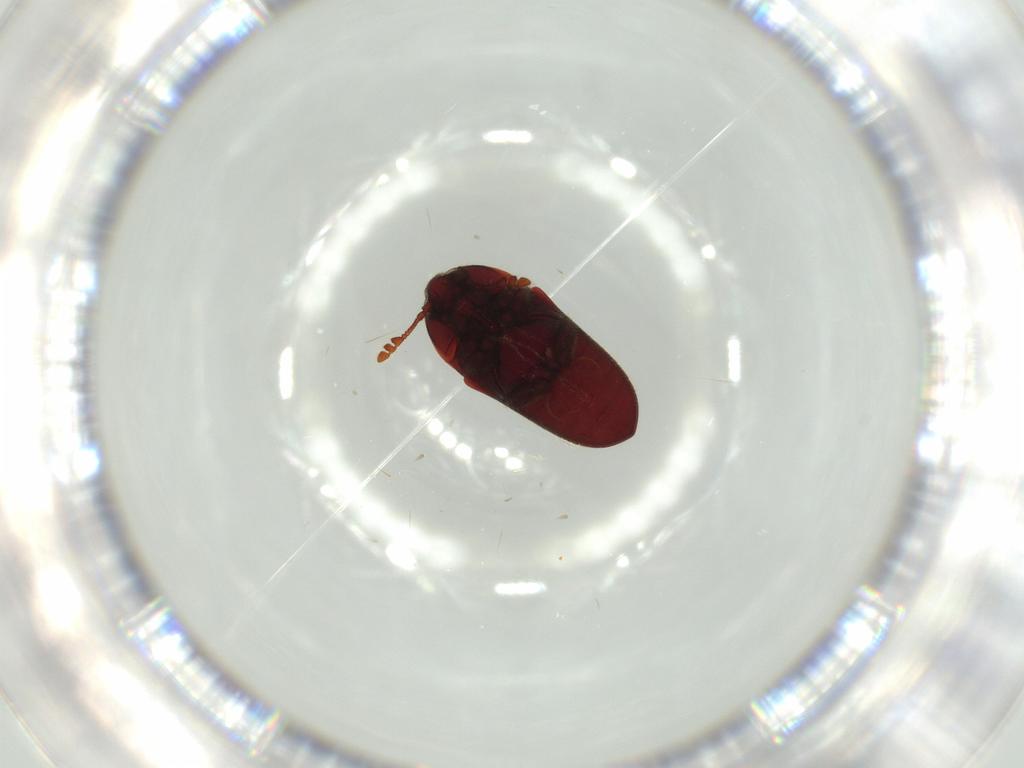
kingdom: Animalia
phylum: Arthropoda
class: Insecta
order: Coleoptera
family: Throscidae
